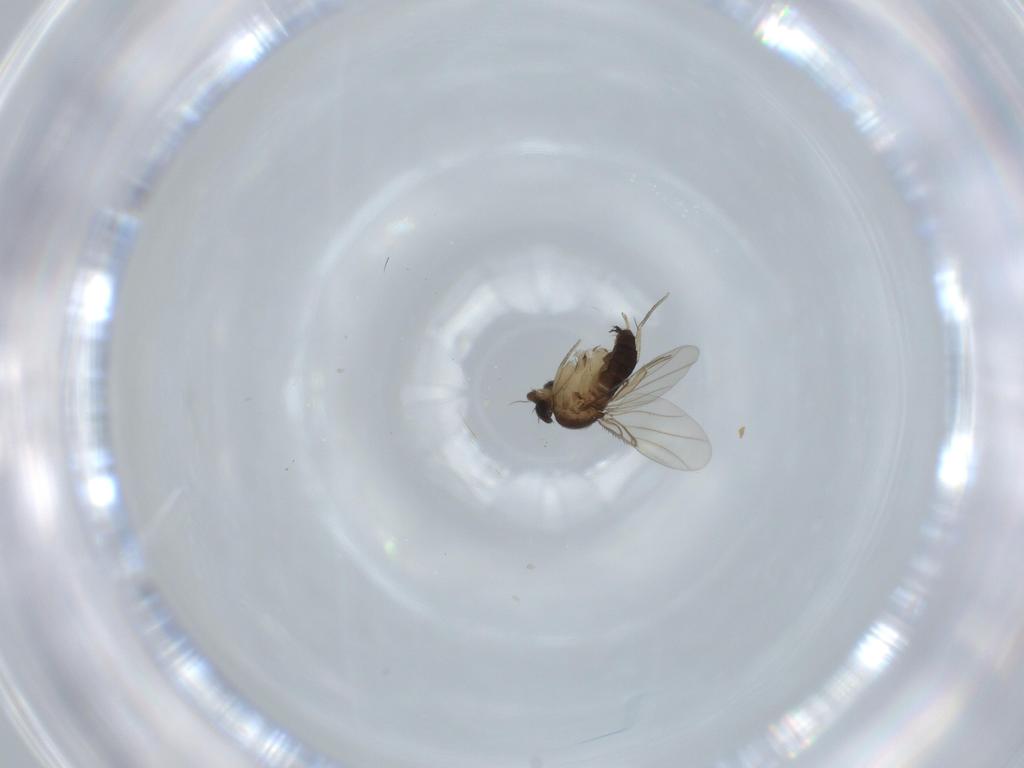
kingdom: Animalia
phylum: Arthropoda
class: Insecta
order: Diptera
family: Phoridae
